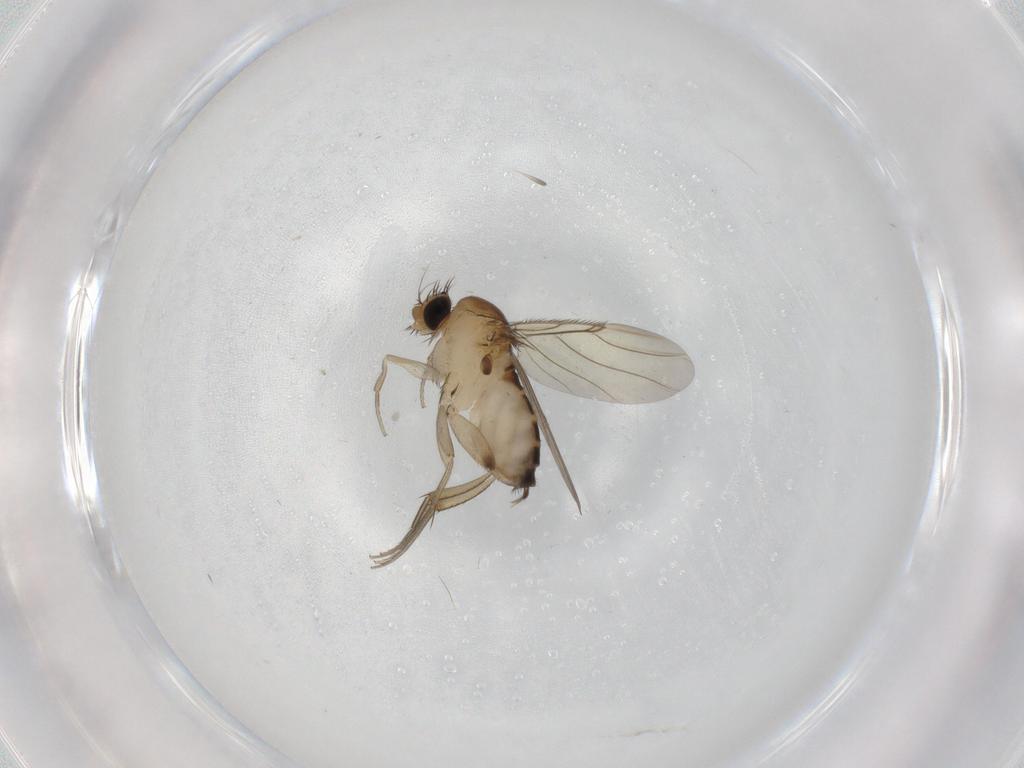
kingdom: Animalia
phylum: Arthropoda
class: Insecta
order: Diptera
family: Phoridae
